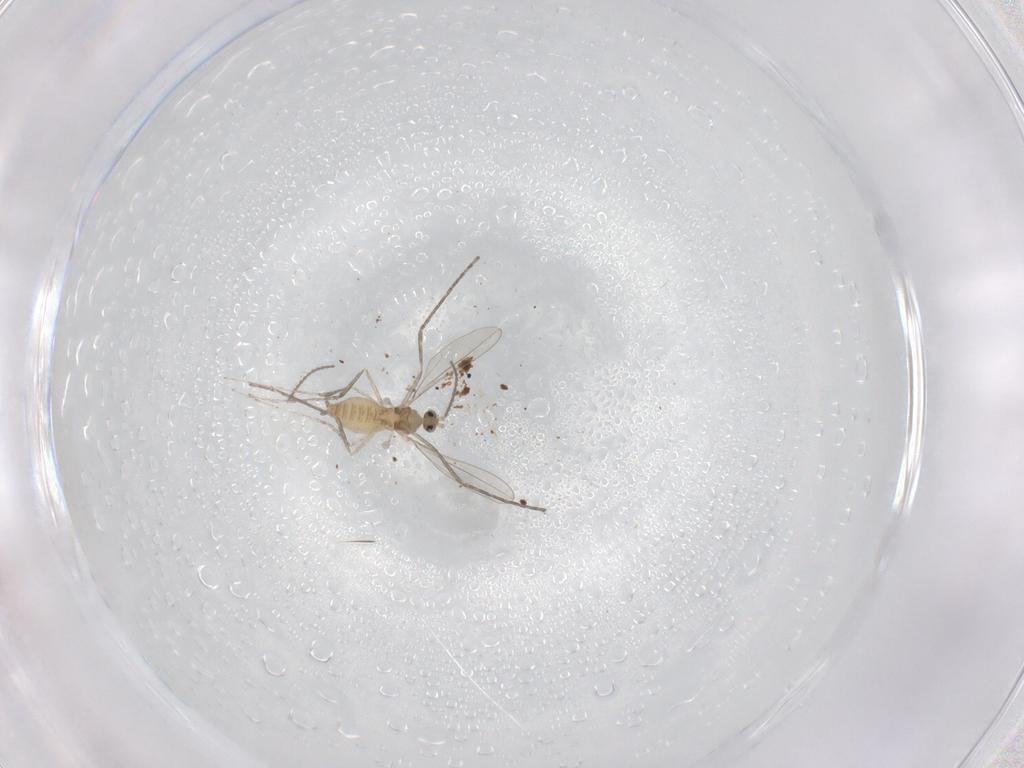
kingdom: Animalia
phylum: Arthropoda
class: Insecta
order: Diptera
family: Cecidomyiidae
